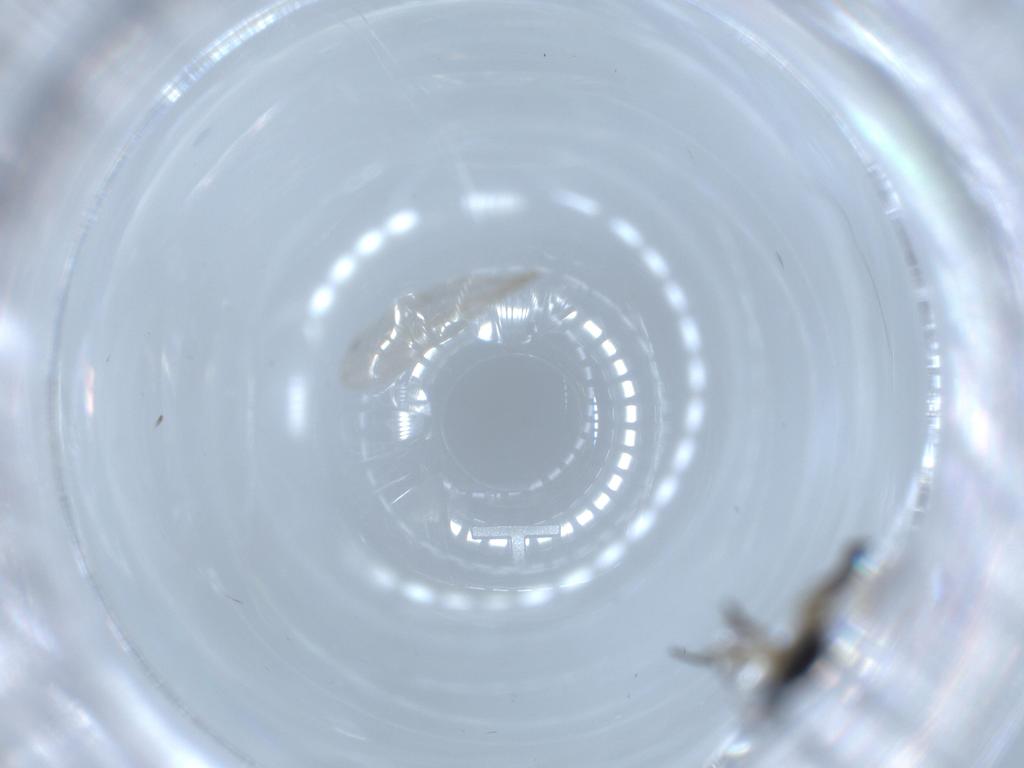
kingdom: Animalia
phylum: Arthropoda
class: Insecta
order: Diptera
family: Sciaridae
